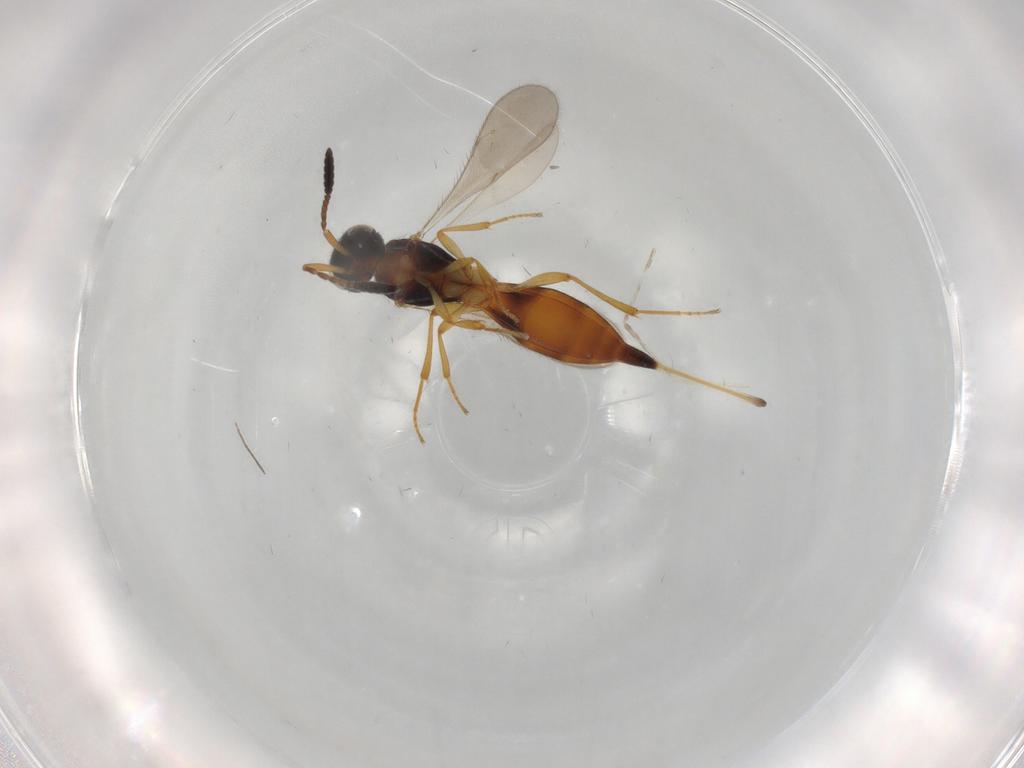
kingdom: Animalia
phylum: Arthropoda
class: Insecta
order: Hymenoptera
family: Scelionidae
